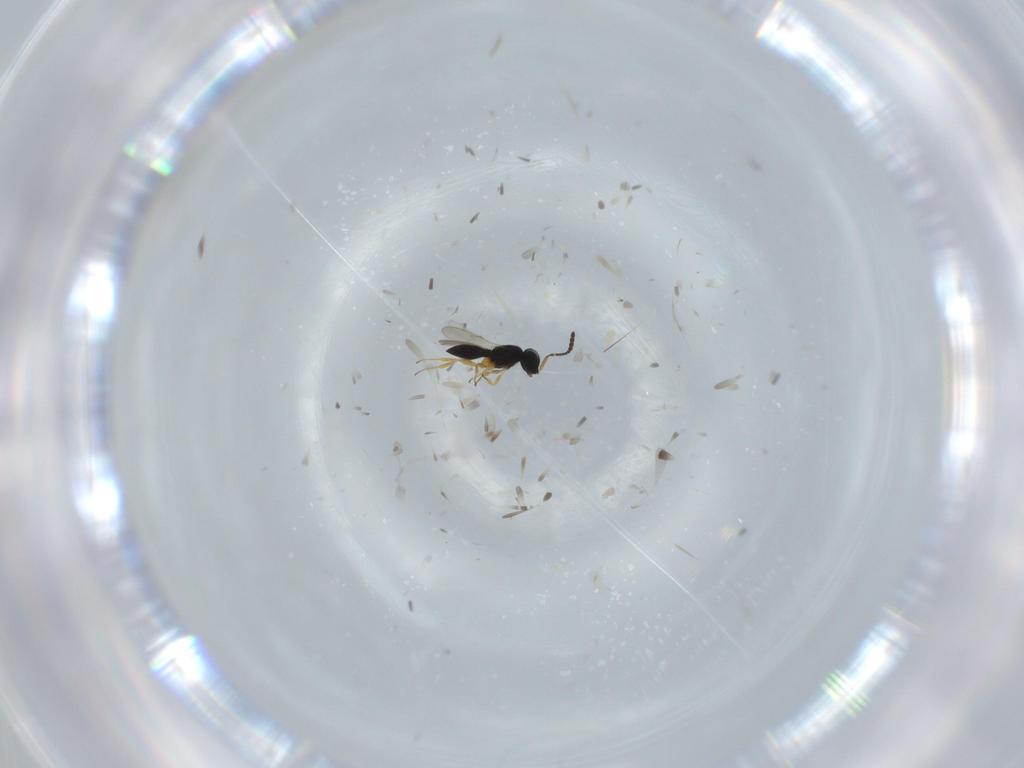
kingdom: Animalia
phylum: Arthropoda
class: Insecta
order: Hymenoptera
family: Scelionidae
